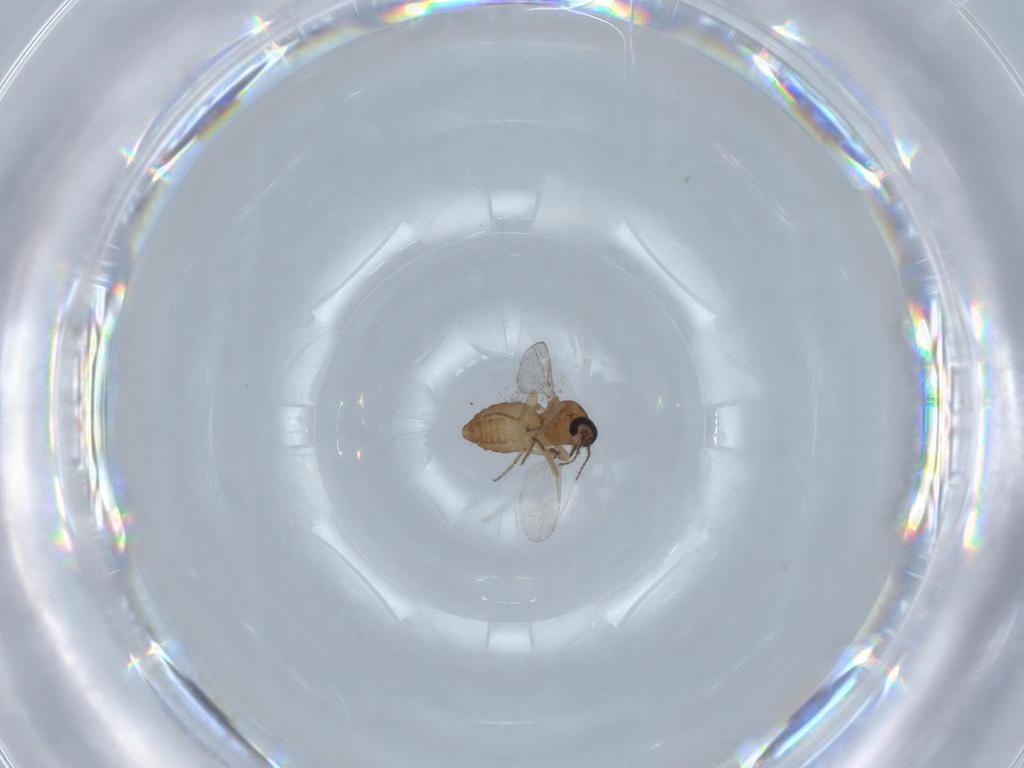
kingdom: Animalia
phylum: Arthropoda
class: Insecta
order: Diptera
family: Ceratopogonidae
